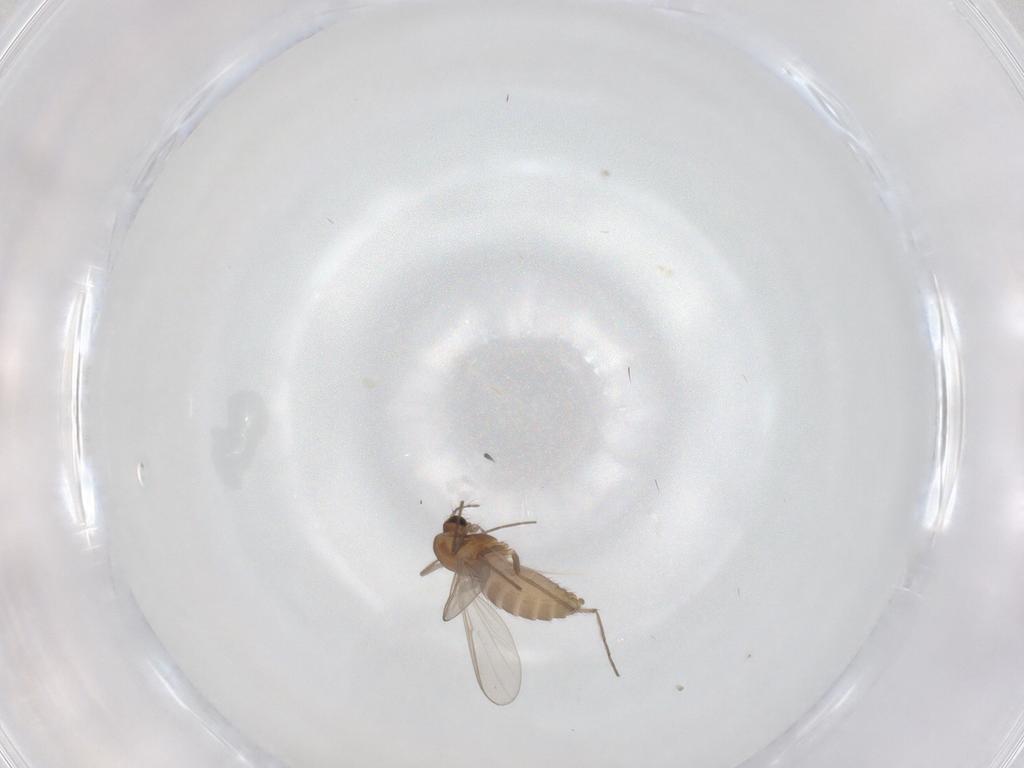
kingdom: Animalia
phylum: Arthropoda
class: Insecta
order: Diptera
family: Chironomidae
